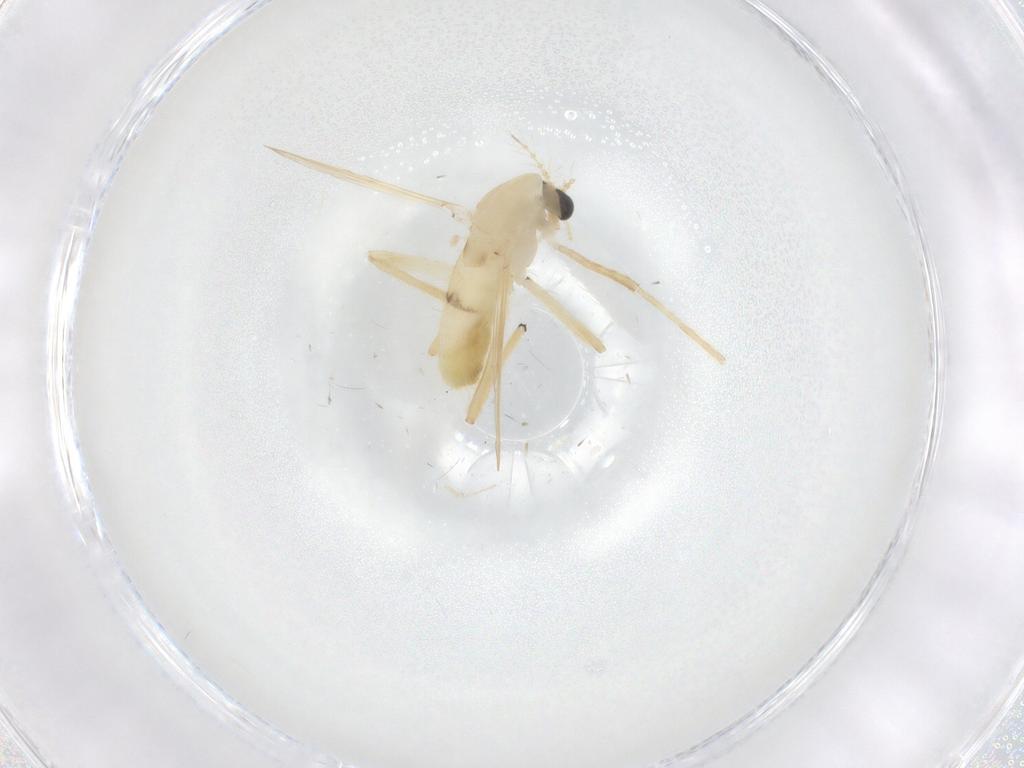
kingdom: Animalia
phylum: Arthropoda
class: Insecta
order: Diptera
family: Chironomidae
